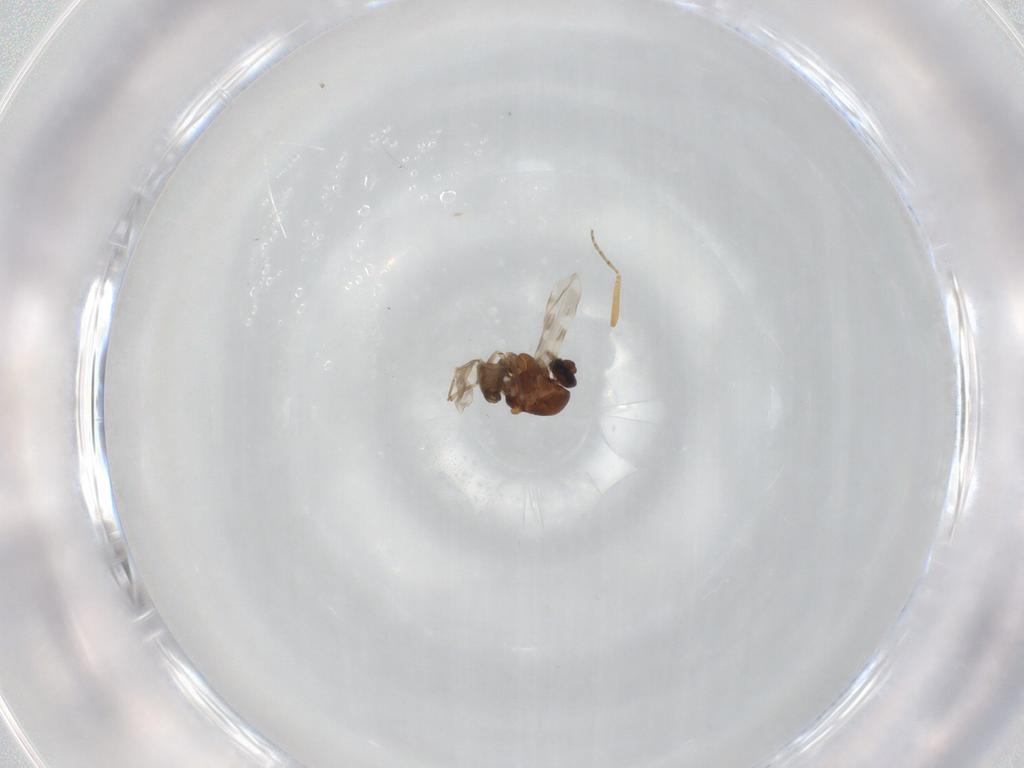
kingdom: Animalia
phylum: Arthropoda
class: Insecta
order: Diptera
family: Ceratopogonidae
